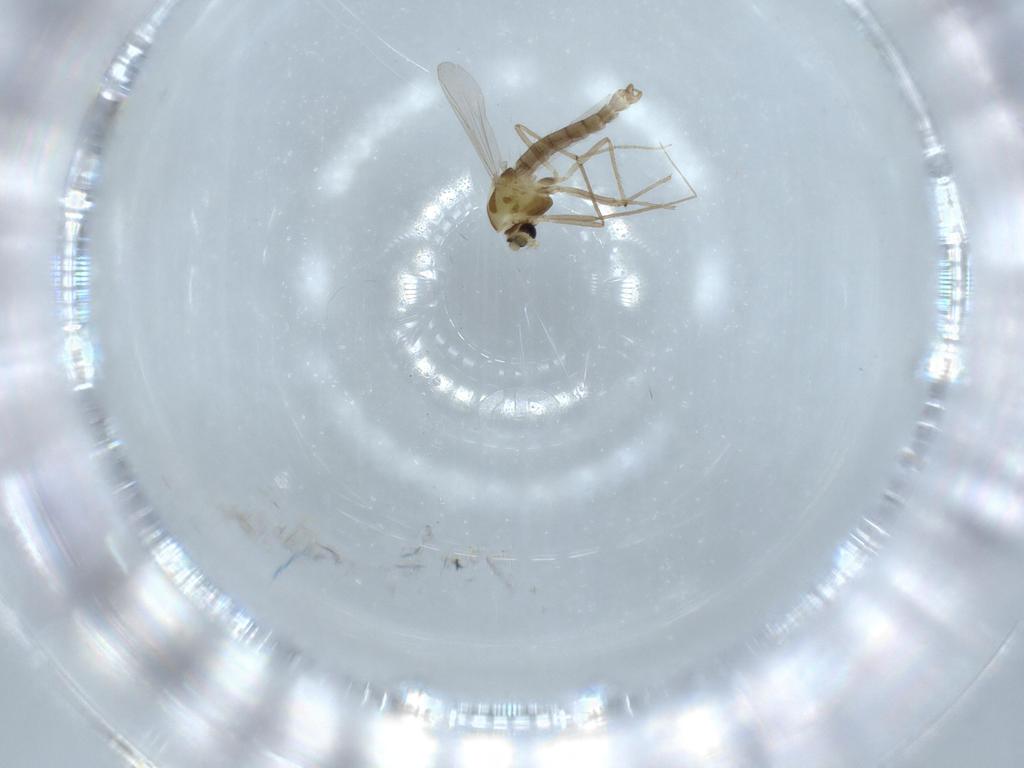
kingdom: Animalia
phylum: Arthropoda
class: Insecta
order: Diptera
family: Chironomidae
